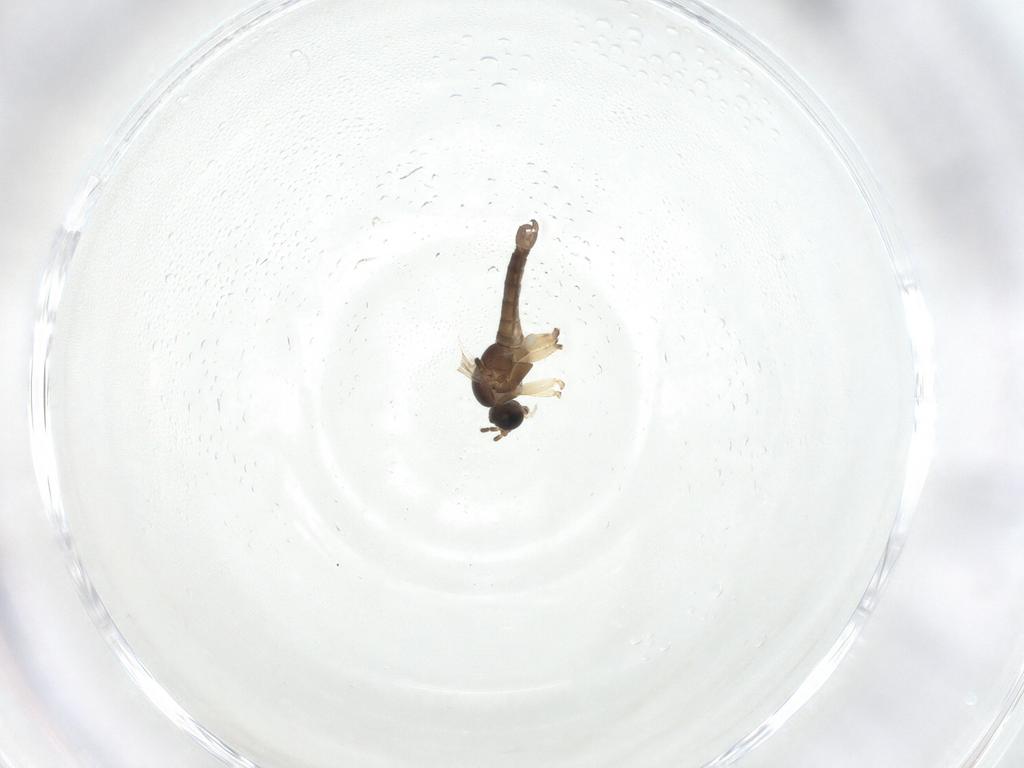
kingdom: Animalia
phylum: Arthropoda
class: Insecta
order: Diptera
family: Sciaridae
